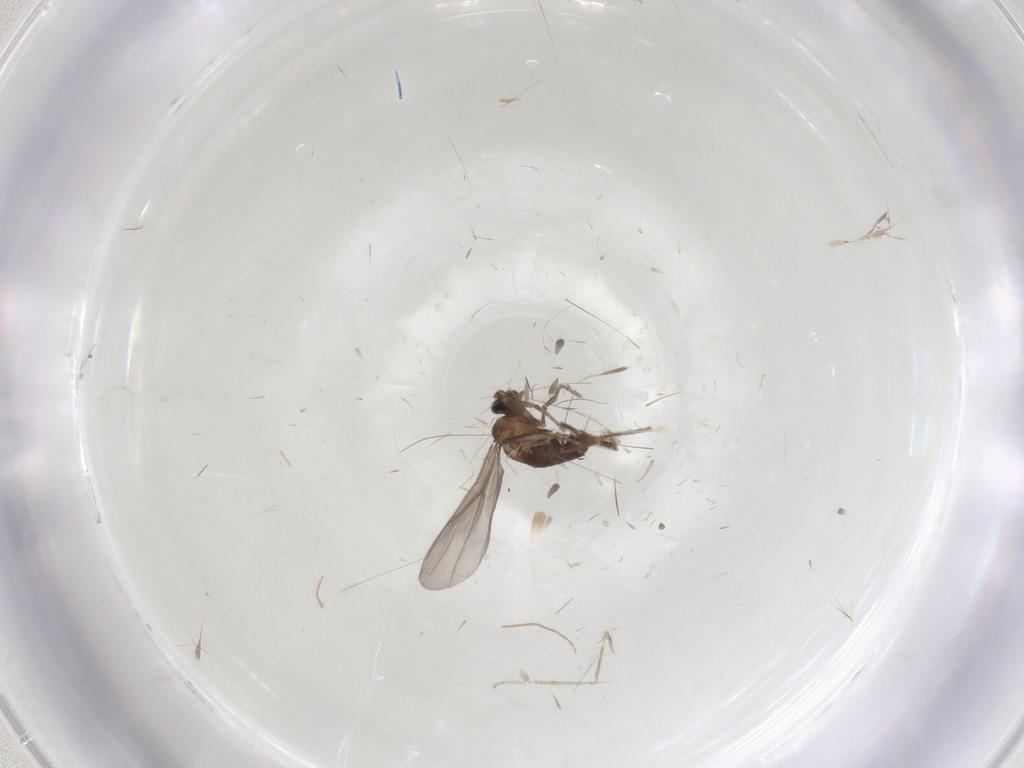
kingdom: Animalia
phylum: Arthropoda
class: Insecta
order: Diptera
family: Phoridae
